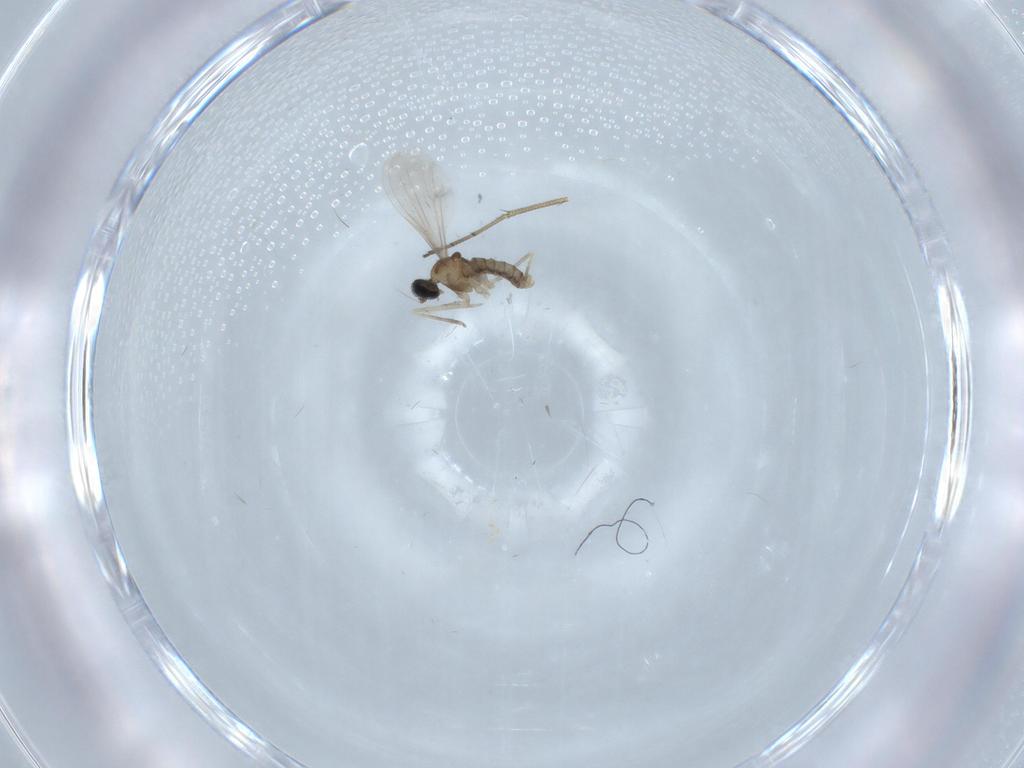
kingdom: Animalia
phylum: Arthropoda
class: Insecta
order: Diptera
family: Dolichopodidae
